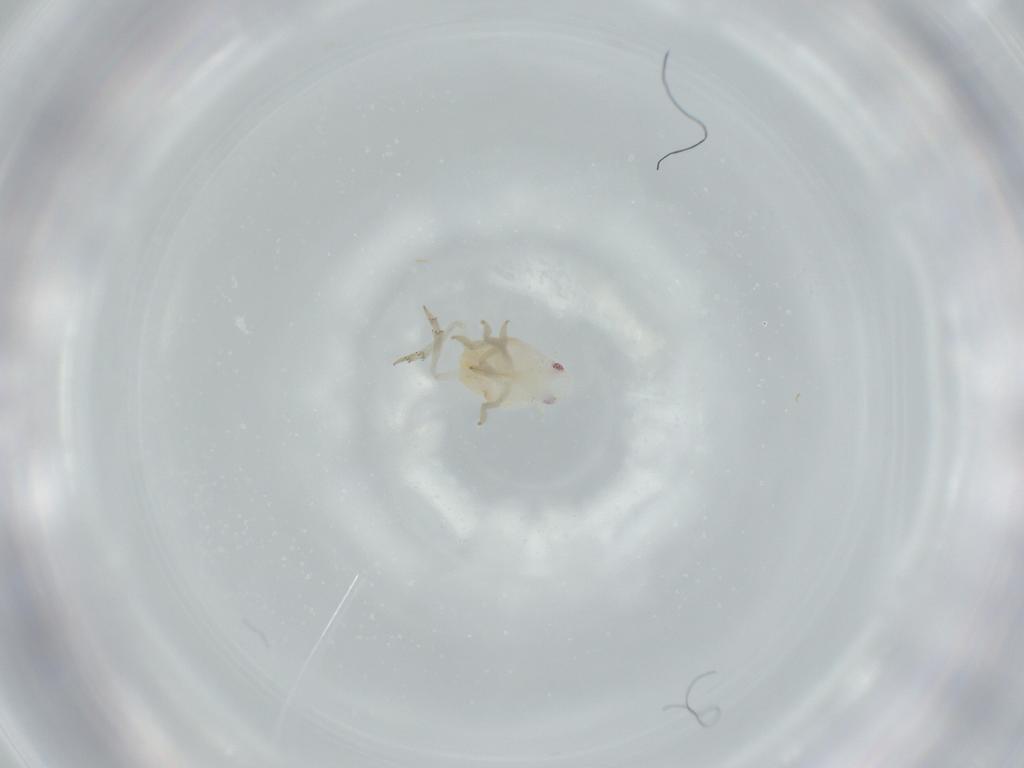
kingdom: Animalia
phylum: Arthropoda
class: Insecta
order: Hemiptera
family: Flatidae
